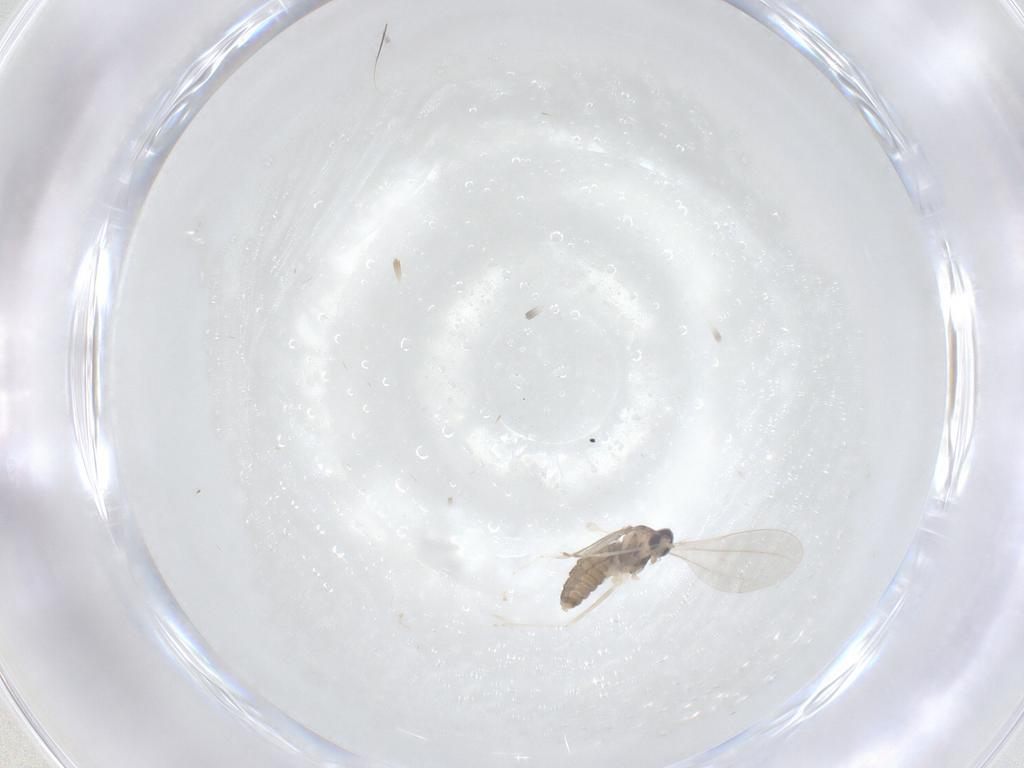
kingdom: Animalia
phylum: Arthropoda
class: Insecta
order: Diptera
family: Cecidomyiidae
